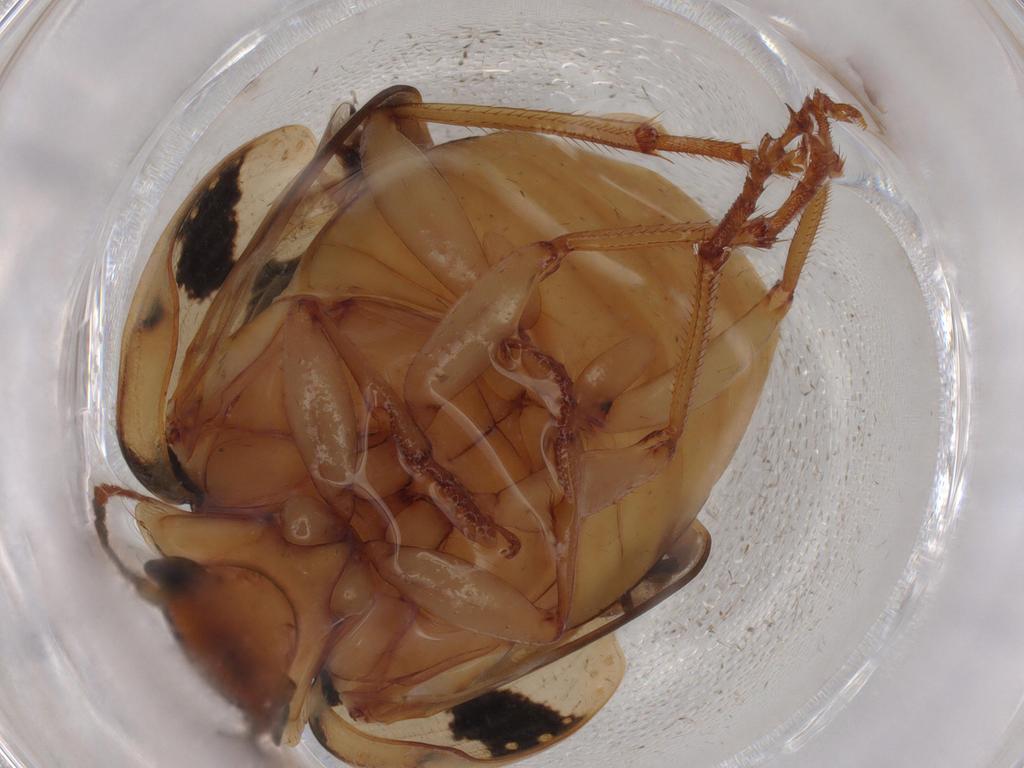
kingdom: Animalia
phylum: Arthropoda
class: Insecta
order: Coleoptera
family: Carabidae
